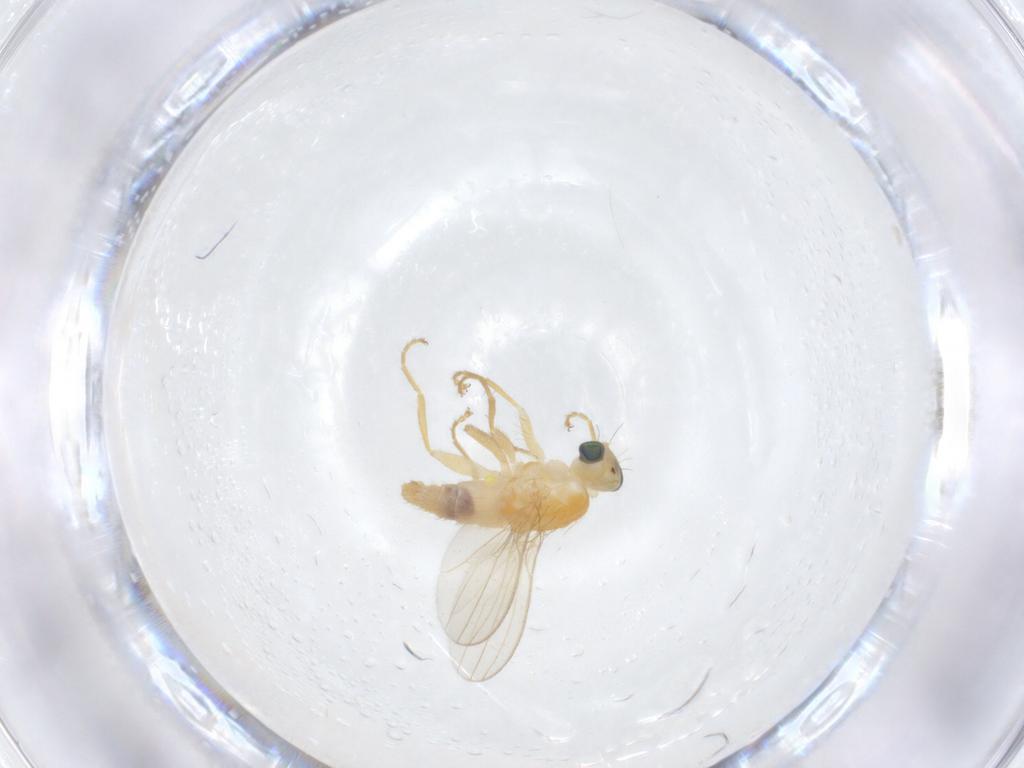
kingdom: Animalia
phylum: Arthropoda
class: Insecta
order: Diptera
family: Chyromyidae
